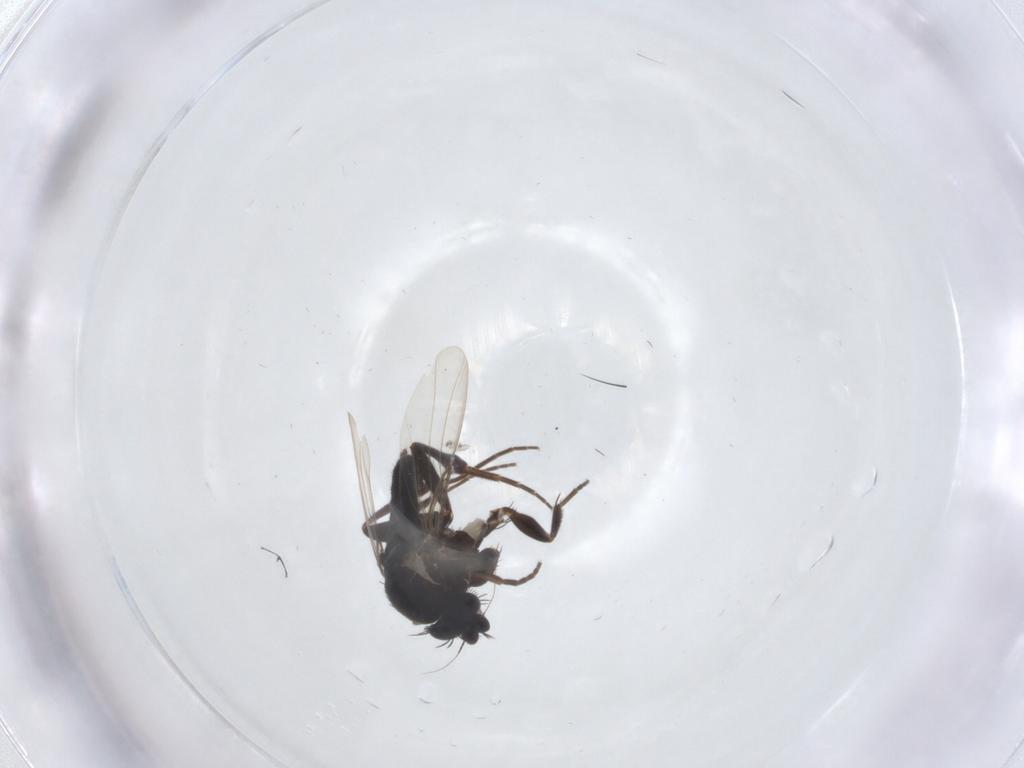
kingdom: Animalia
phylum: Arthropoda
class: Insecta
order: Diptera
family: Phoridae
